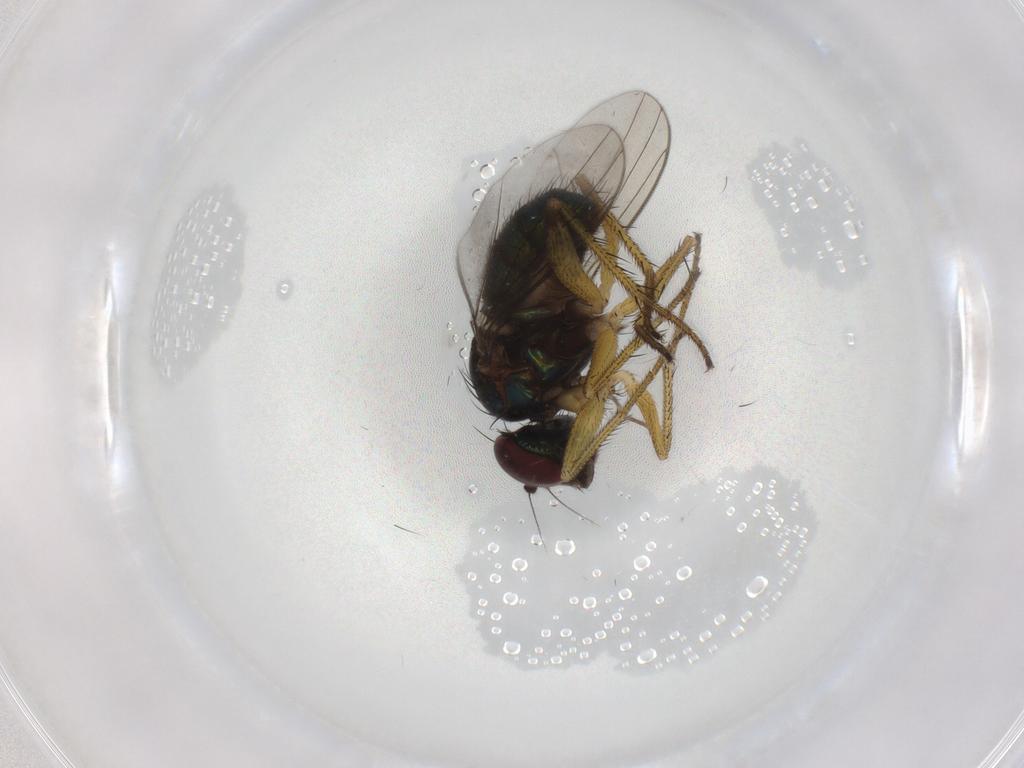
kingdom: Animalia
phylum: Arthropoda
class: Insecta
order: Diptera
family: Dolichopodidae
